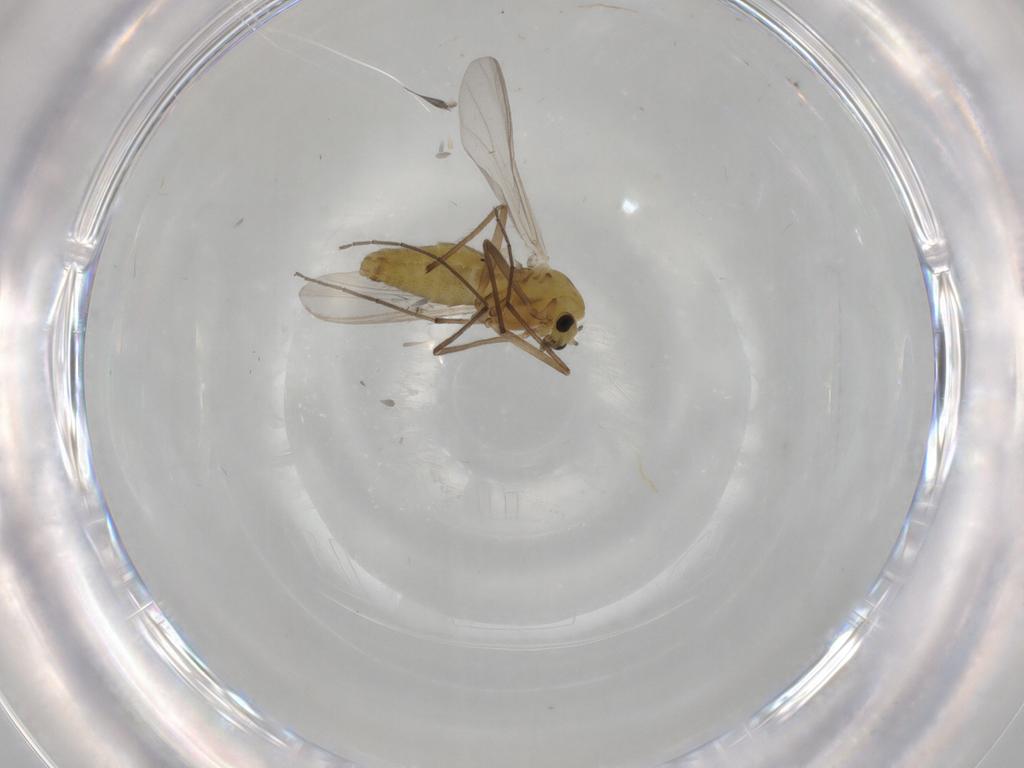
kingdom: Animalia
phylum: Arthropoda
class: Insecta
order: Diptera
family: Chironomidae
